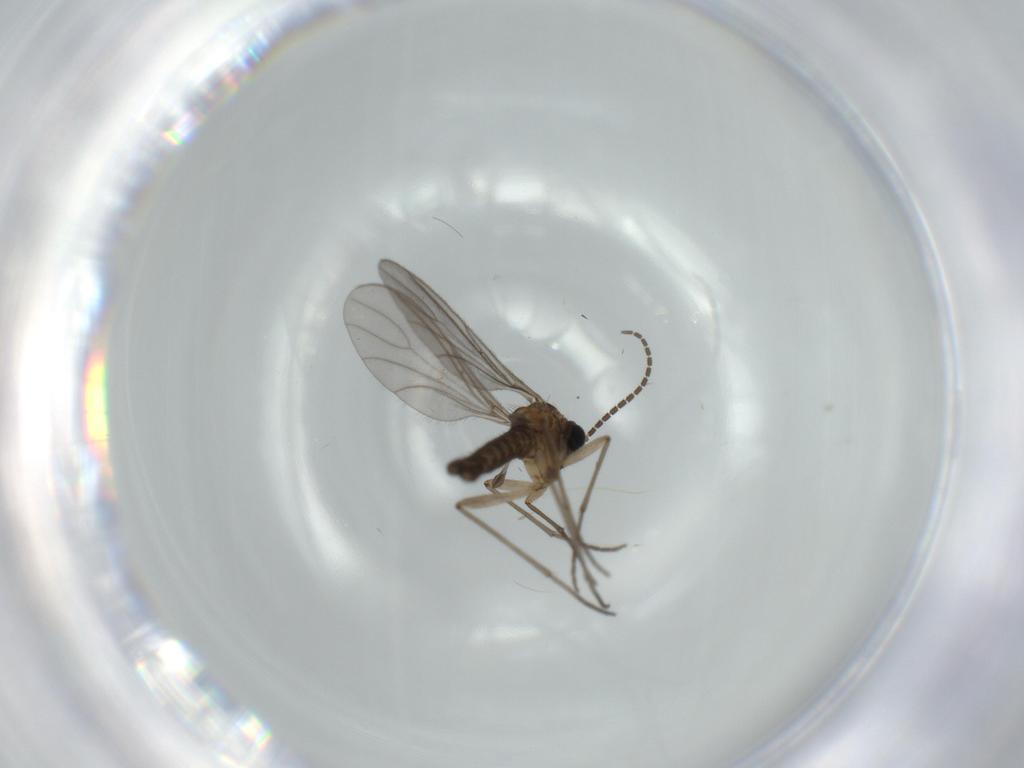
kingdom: Animalia
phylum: Arthropoda
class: Insecta
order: Diptera
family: Sciaridae
